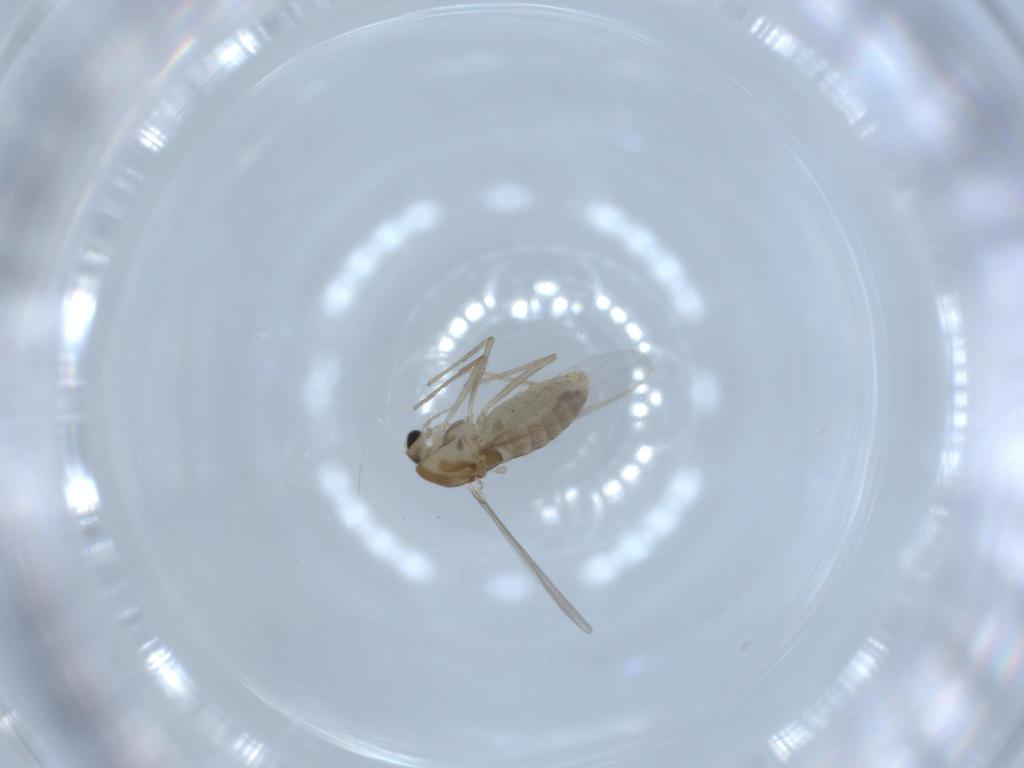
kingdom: Animalia
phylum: Arthropoda
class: Insecta
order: Diptera
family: Chironomidae
